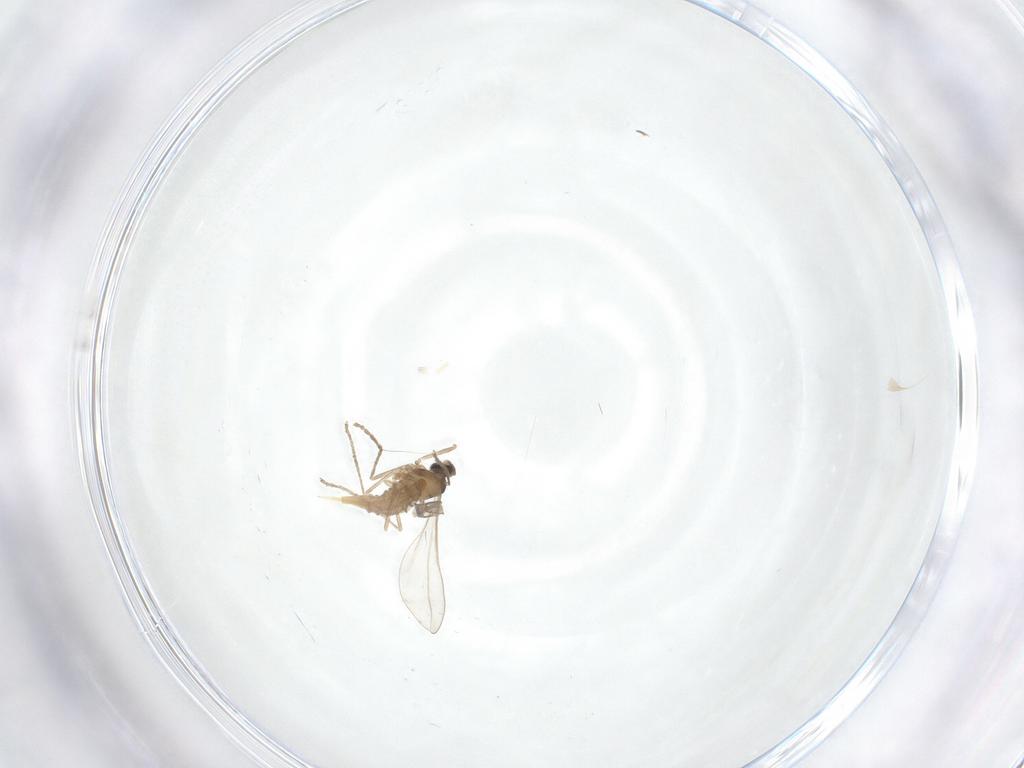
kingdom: Animalia
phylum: Arthropoda
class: Insecta
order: Diptera
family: Cecidomyiidae
